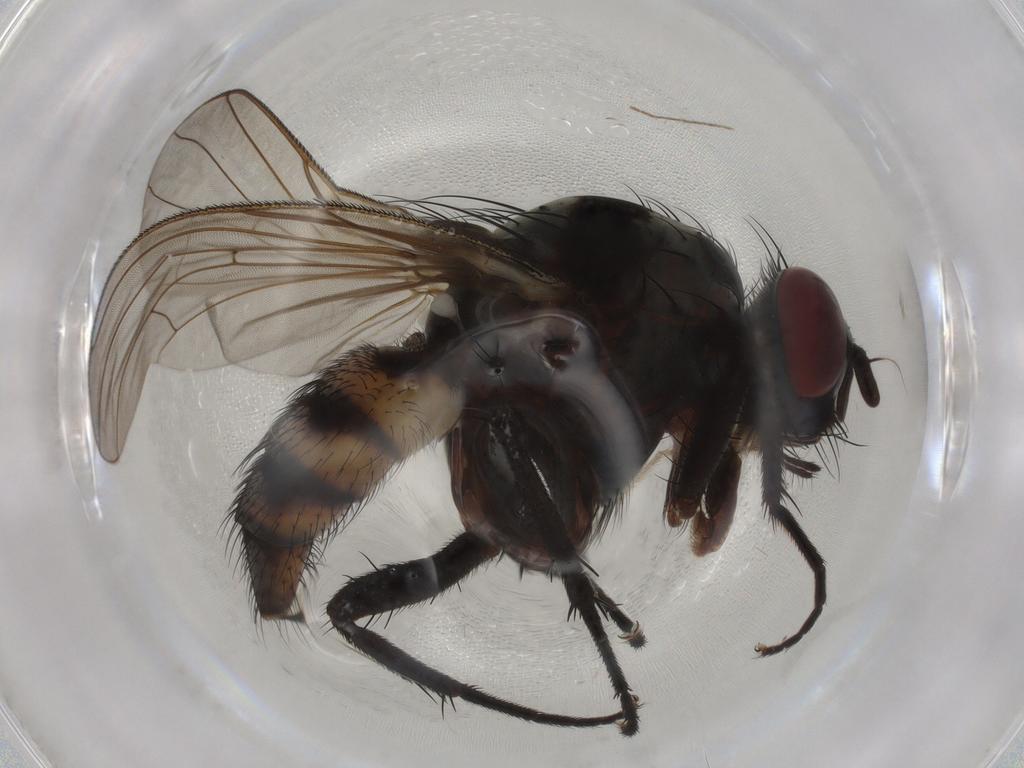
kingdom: Animalia
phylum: Arthropoda
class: Insecta
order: Diptera
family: Anthomyiidae
